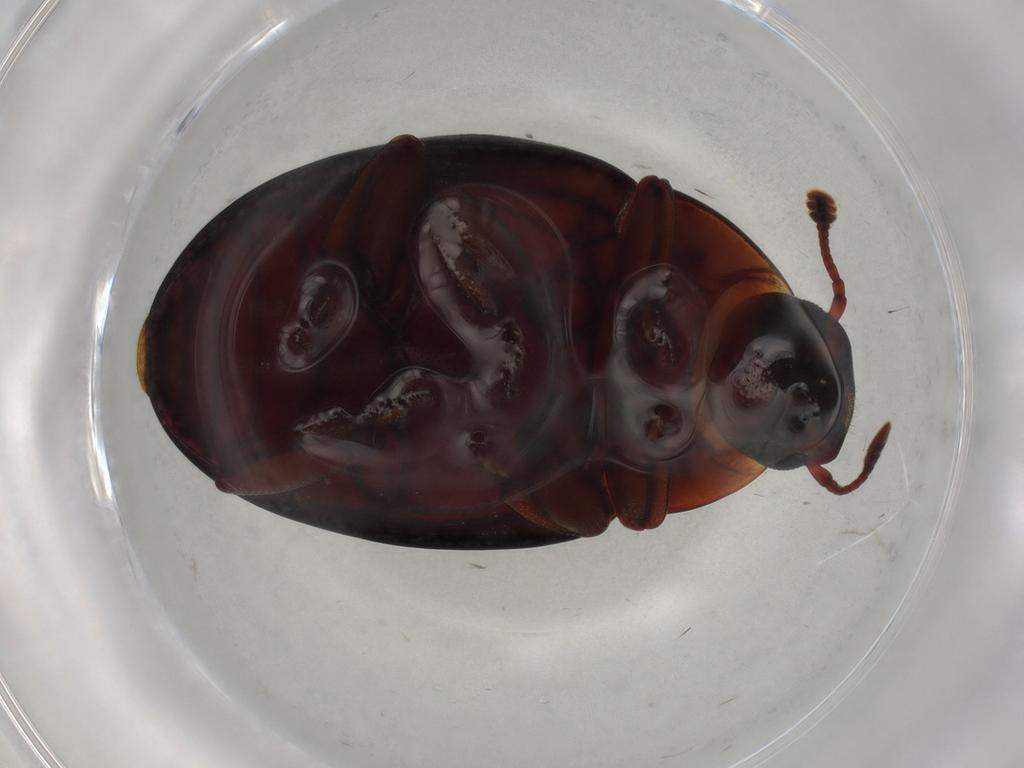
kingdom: Animalia
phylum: Arthropoda
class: Insecta
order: Coleoptera
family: Zopheridae
